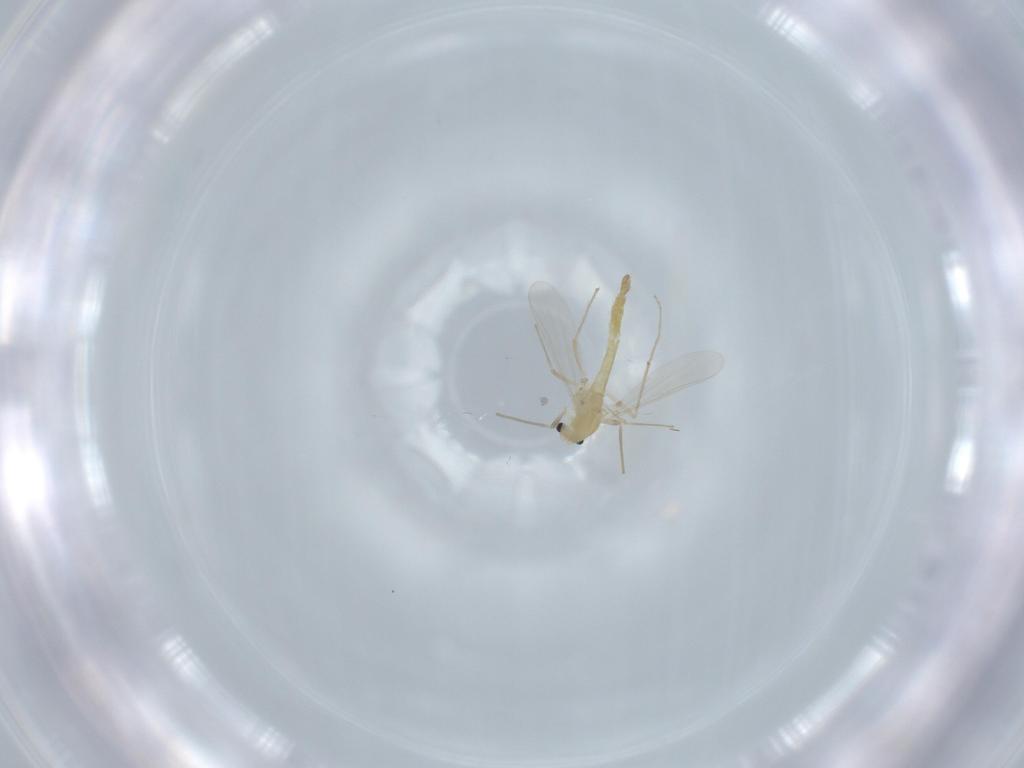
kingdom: Animalia
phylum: Arthropoda
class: Insecta
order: Diptera
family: Chironomidae
